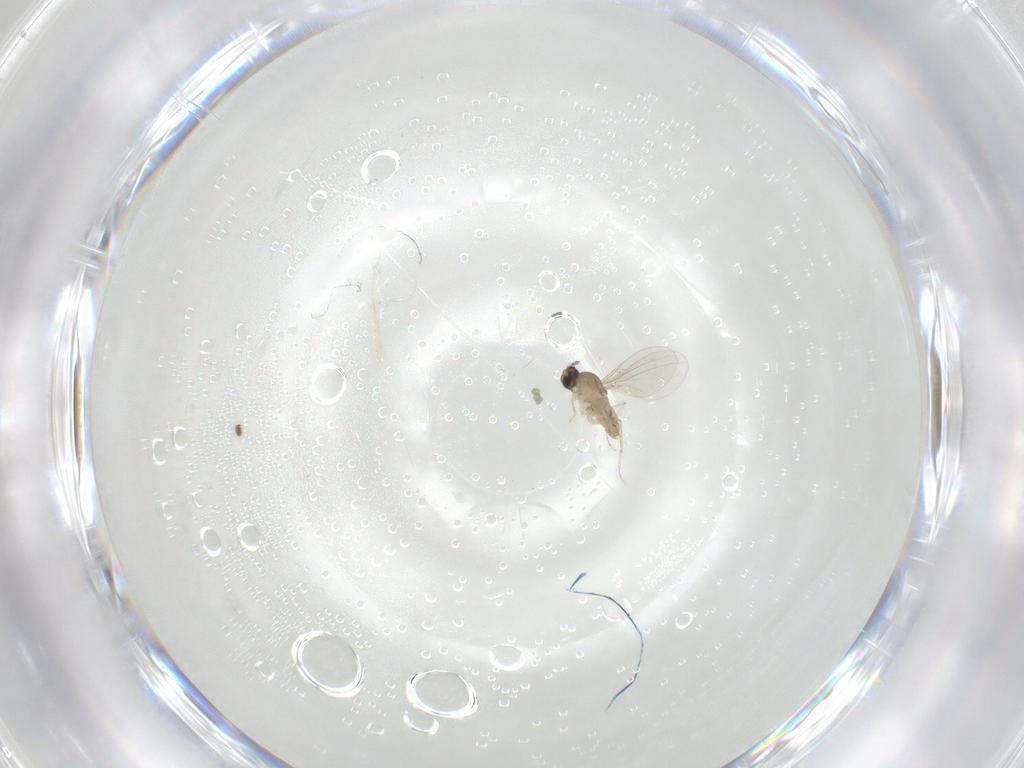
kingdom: Animalia
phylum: Arthropoda
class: Insecta
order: Diptera
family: Cecidomyiidae
